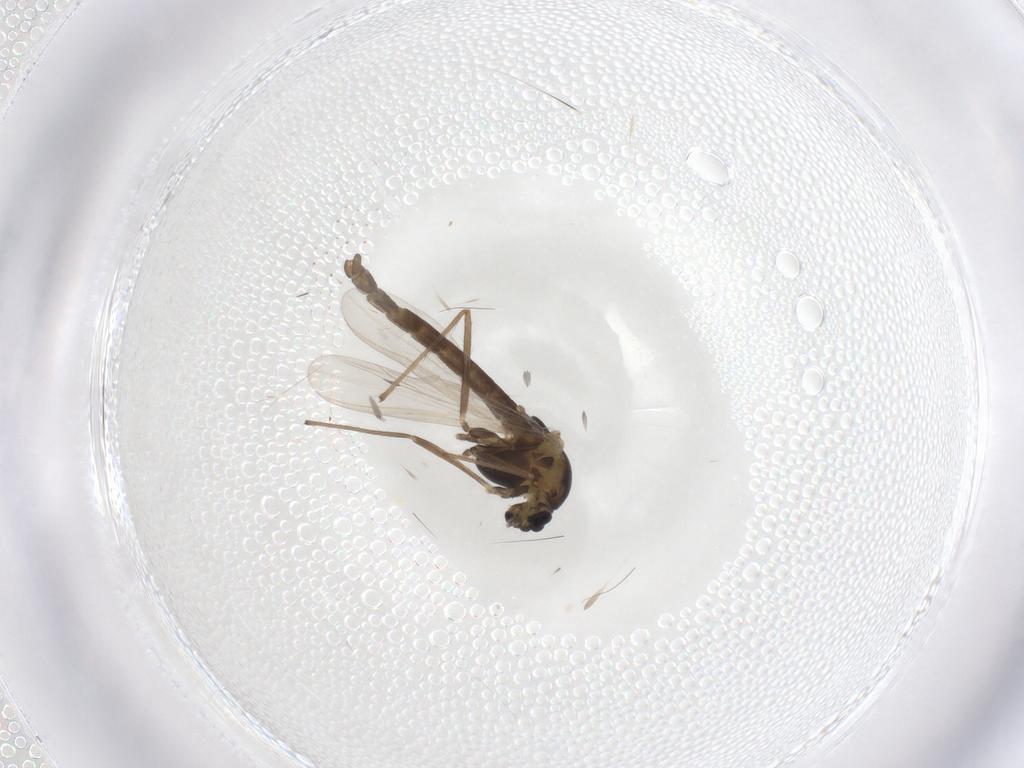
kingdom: Animalia
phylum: Arthropoda
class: Insecta
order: Diptera
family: Chironomidae
